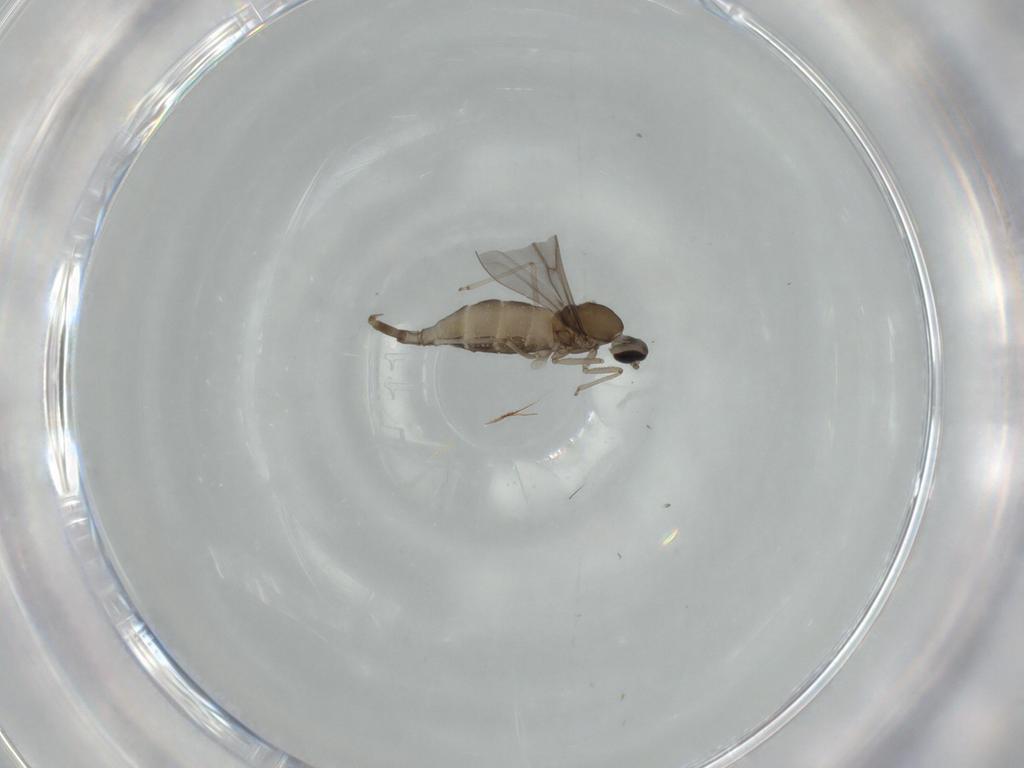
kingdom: Animalia
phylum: Arthropoda
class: Insecta
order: Diptera
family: Cecidomyiidae
